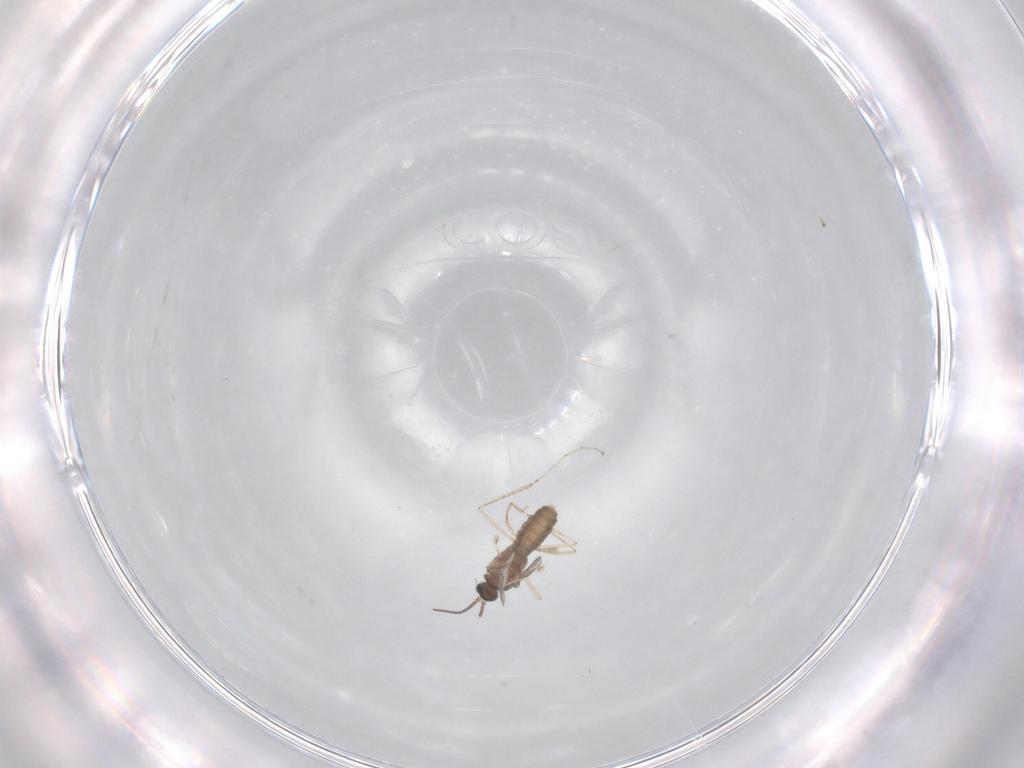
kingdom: Animalia
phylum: Arthropoda
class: Insecta
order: Diptera
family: Cecidomyiidae
